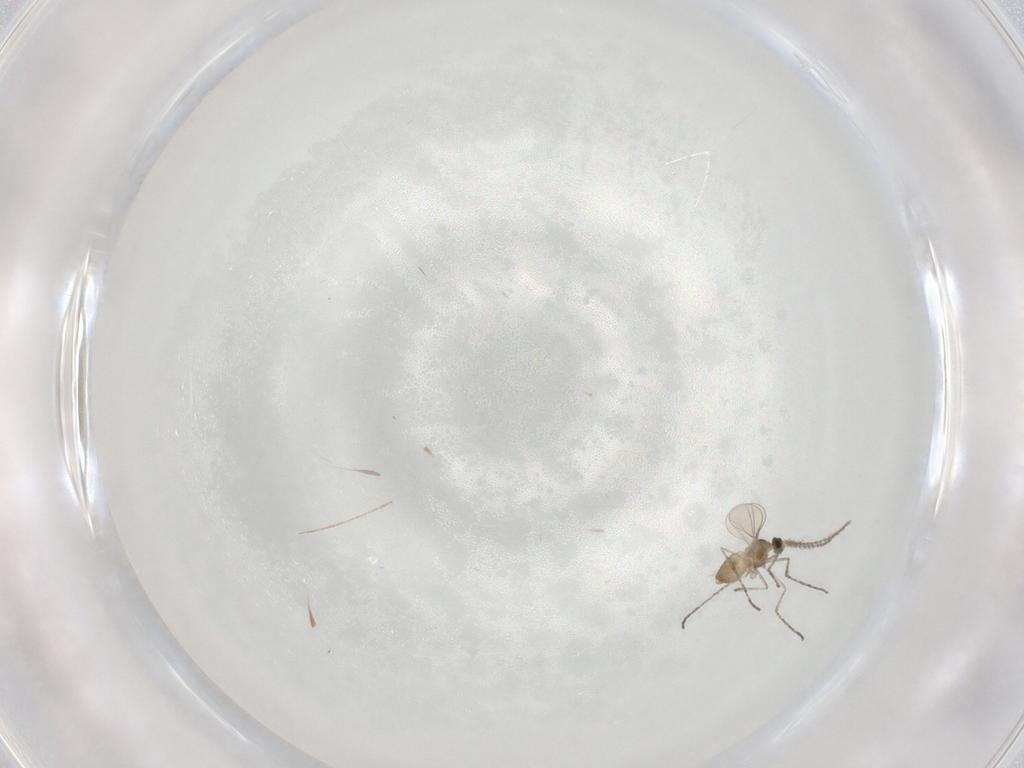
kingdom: Animalia
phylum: Arthropoda
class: Insecta
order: Diptera
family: Cecidomyiidae
